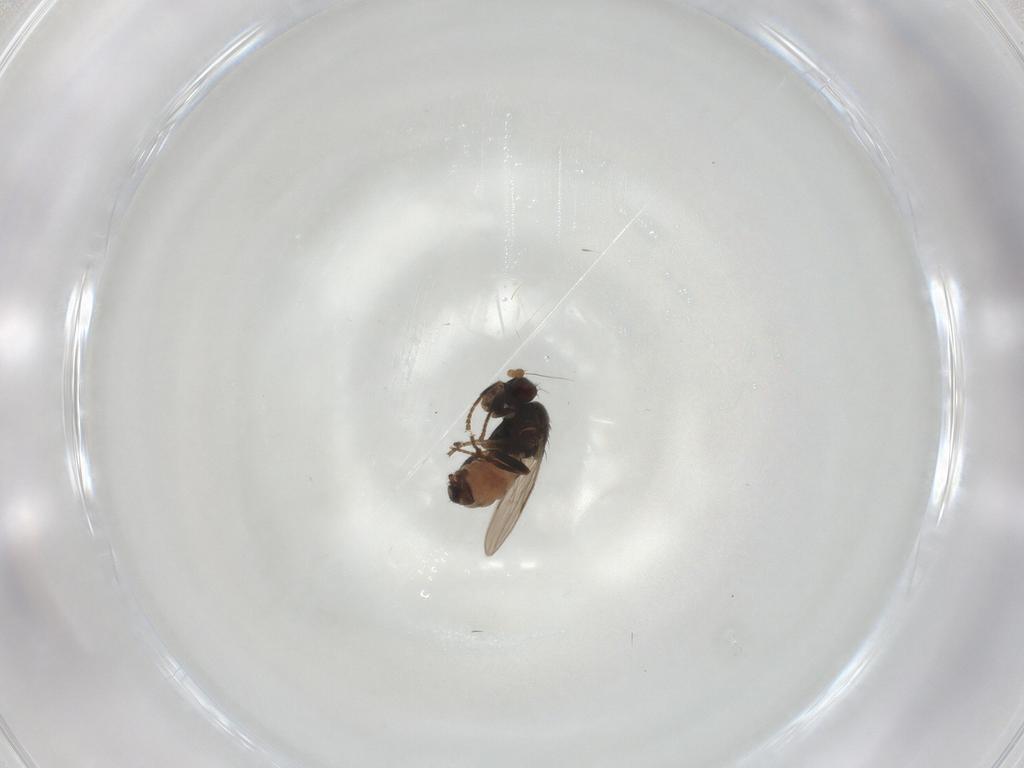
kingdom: Animalia
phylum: Arthropoda
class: Insecta
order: Diptera
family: Sphaeroceridae
